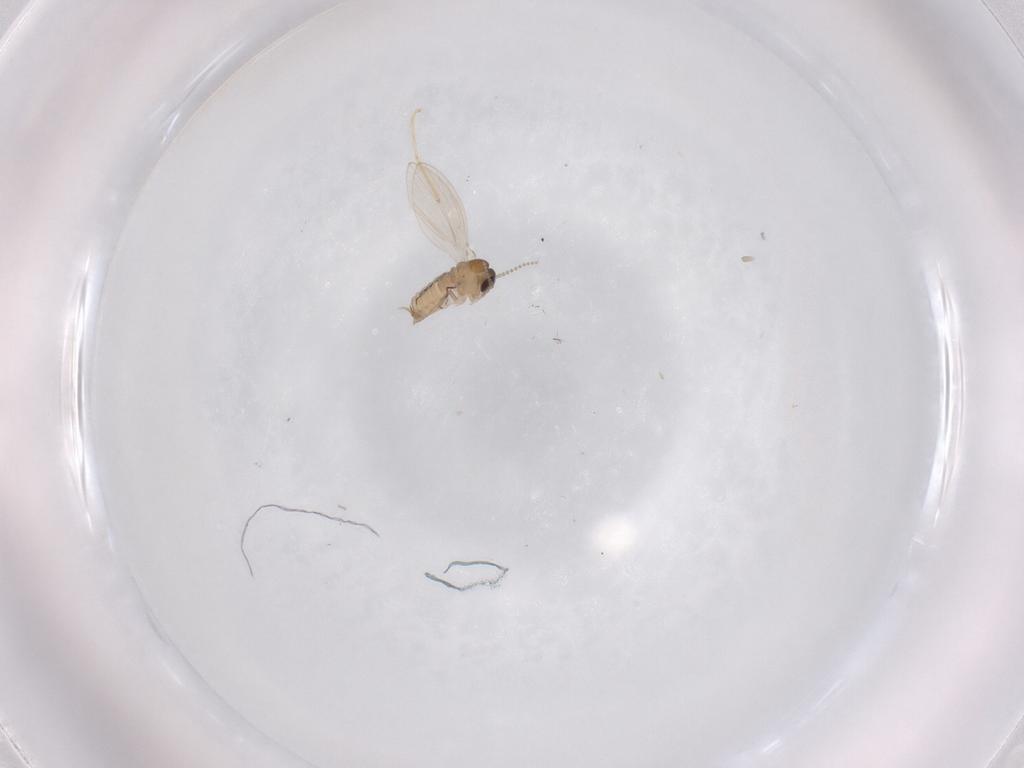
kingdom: Animalia
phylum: Arthropoda
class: Insecta
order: Diptera
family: Psychodidae
